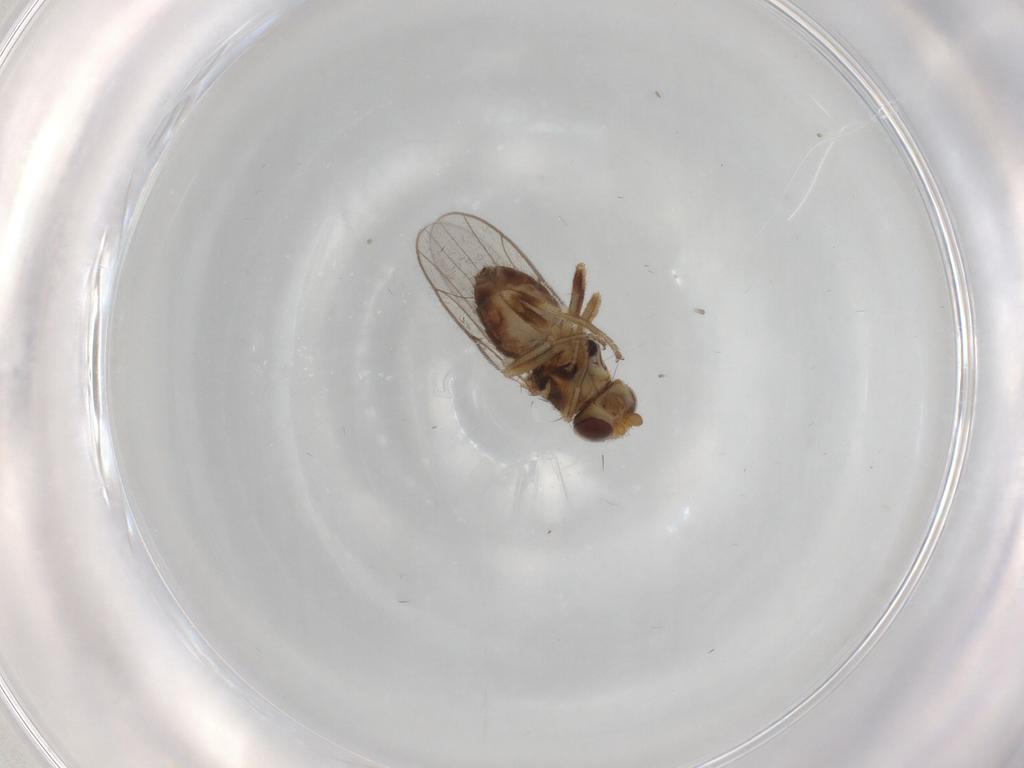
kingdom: Animalia
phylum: Arthropoda
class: Insecta
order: Diptera
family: Chloropidae
